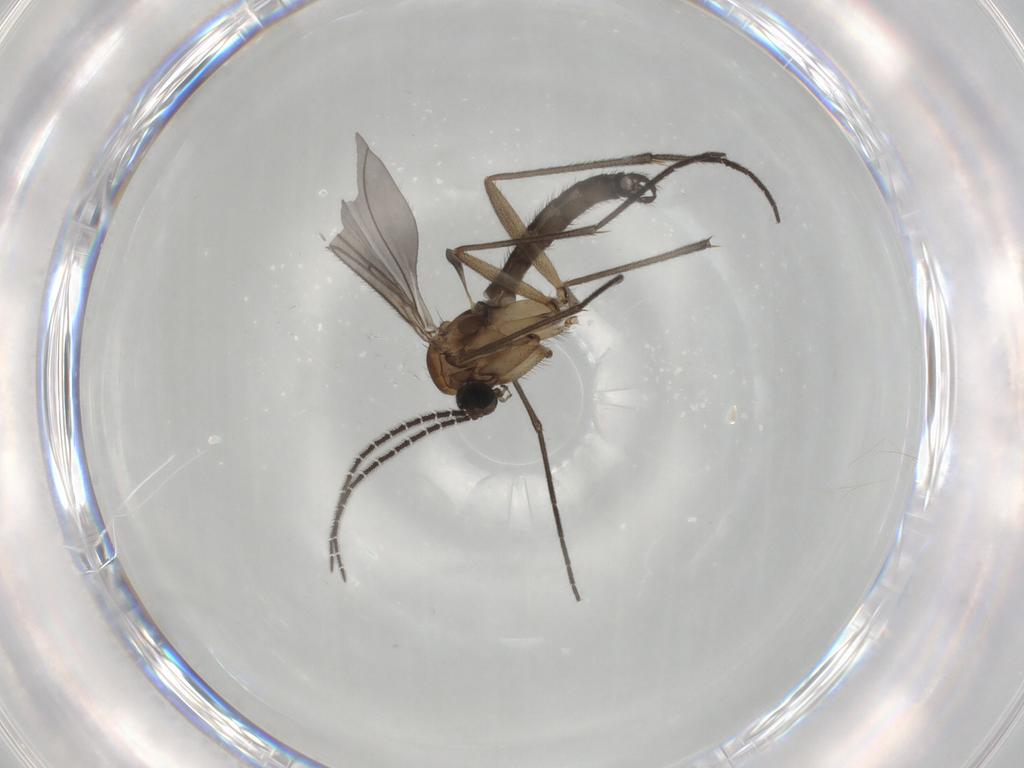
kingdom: Animalia
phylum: Arthropoda
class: Insecta
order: Diptera
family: Sciaridae
